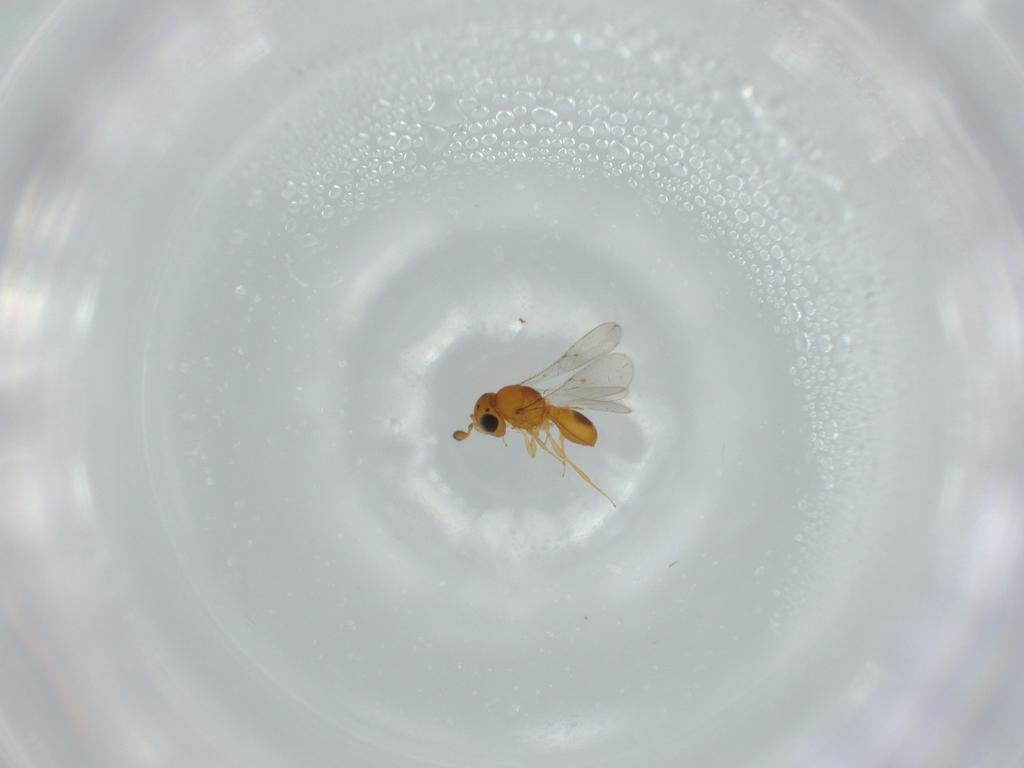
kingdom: Animalia
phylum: Arthropoda
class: Insecta
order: Hymenoptera
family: Scelionidae
